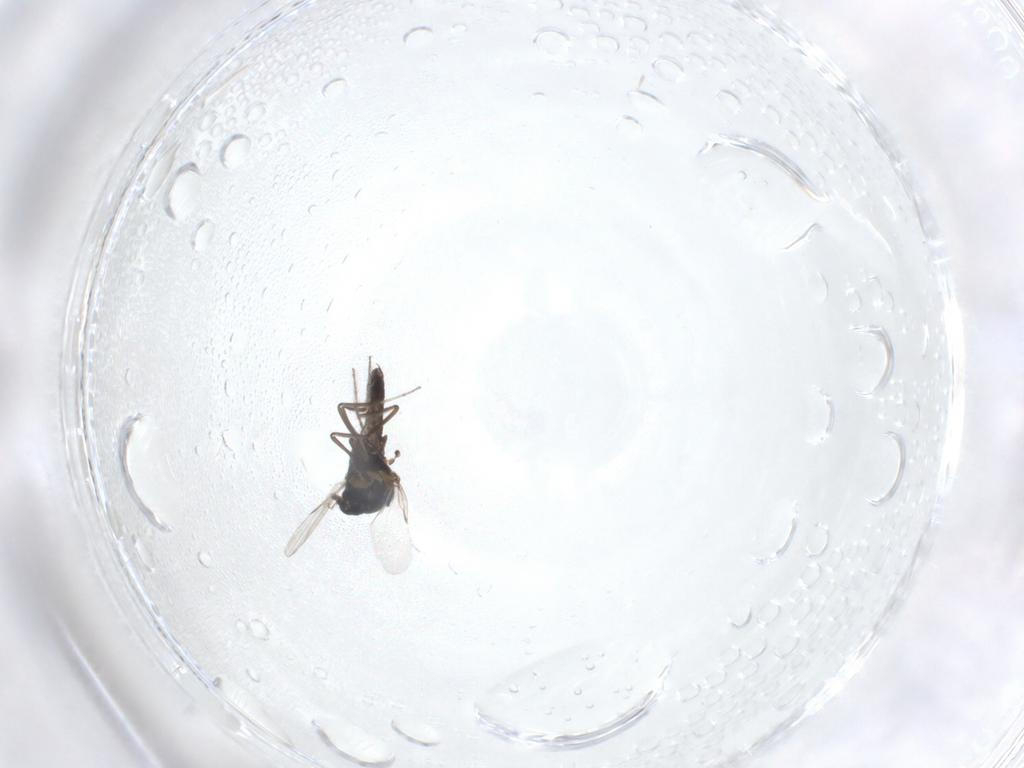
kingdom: Animalia
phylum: Arthropoda
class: Insecta
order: Diptera
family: Ceratopogonidae
